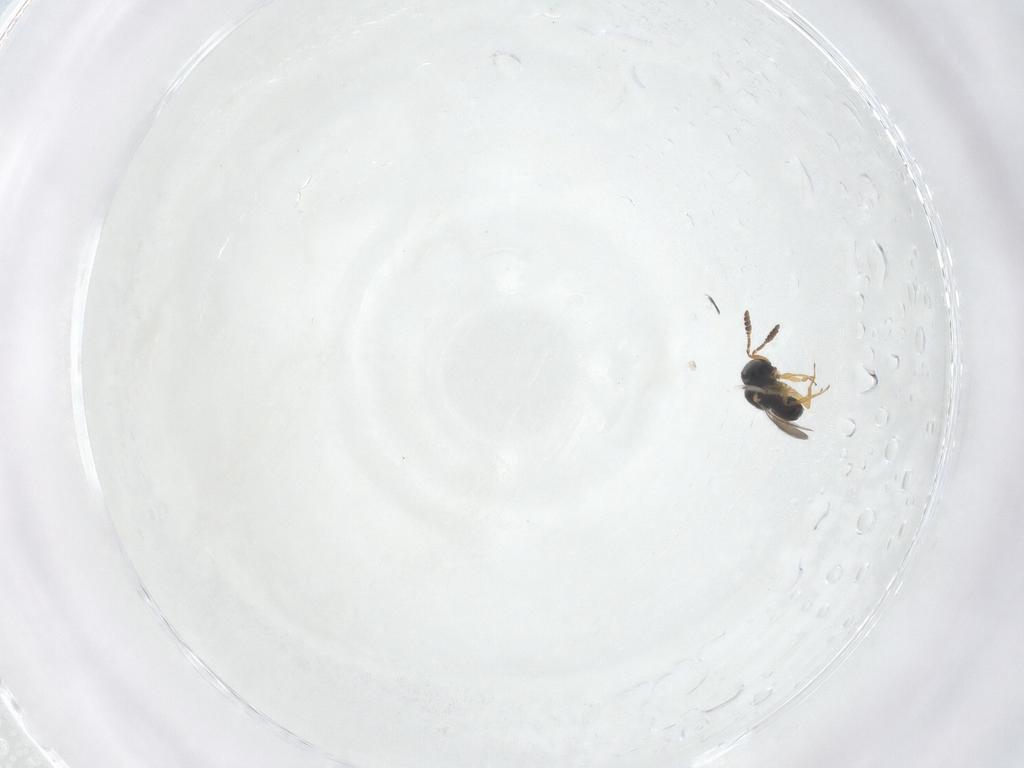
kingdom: Animalia
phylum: Arthropoda
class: Insecta
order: Hymenoptera
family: Scelionidae
